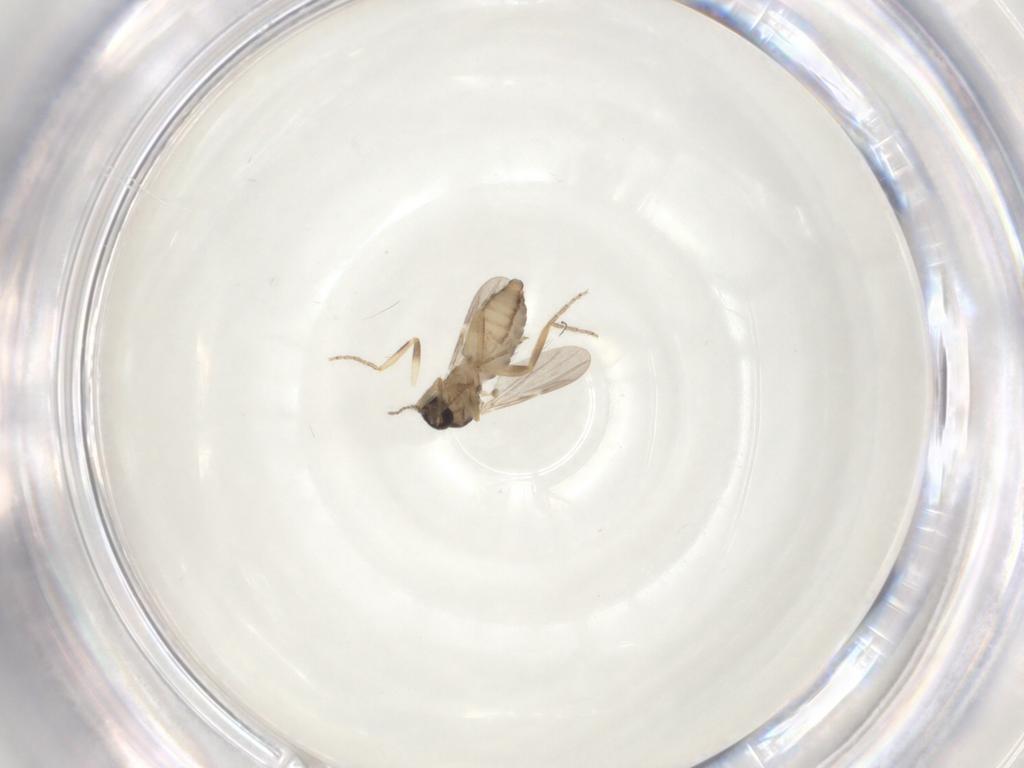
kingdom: Animalia
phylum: Arthropoda
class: Insecta
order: Diptera
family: Ceratopogonidae
